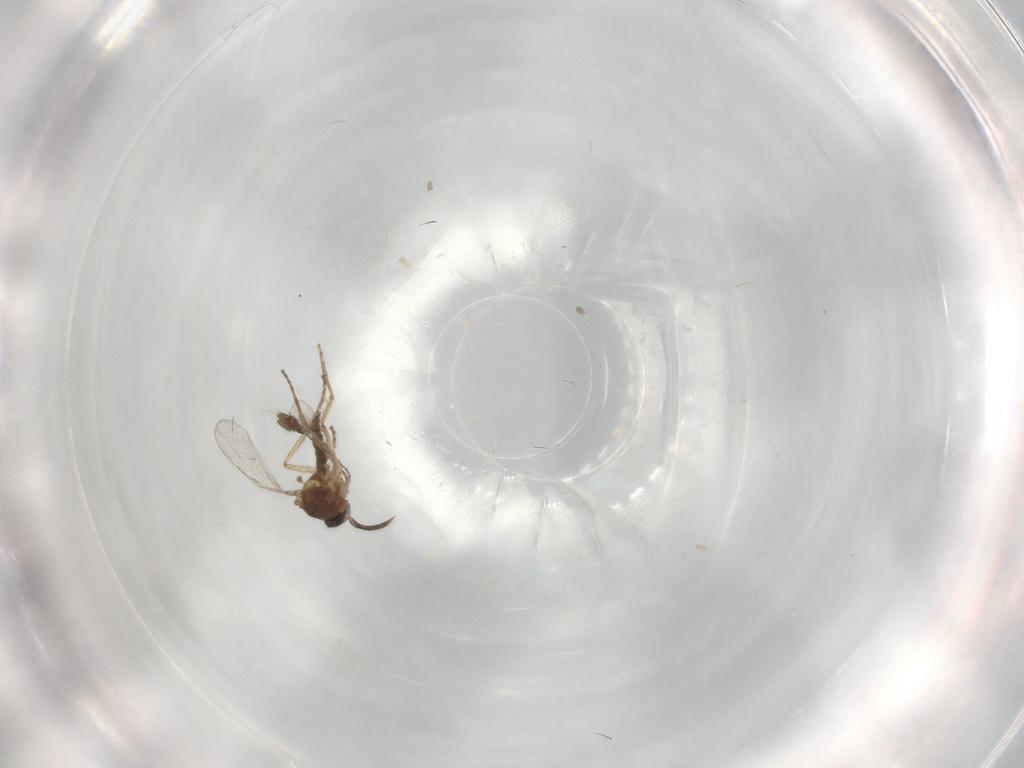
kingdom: Animalia
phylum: Arthropoda
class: Insecta
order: Diptera
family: Ceratopogonidae
